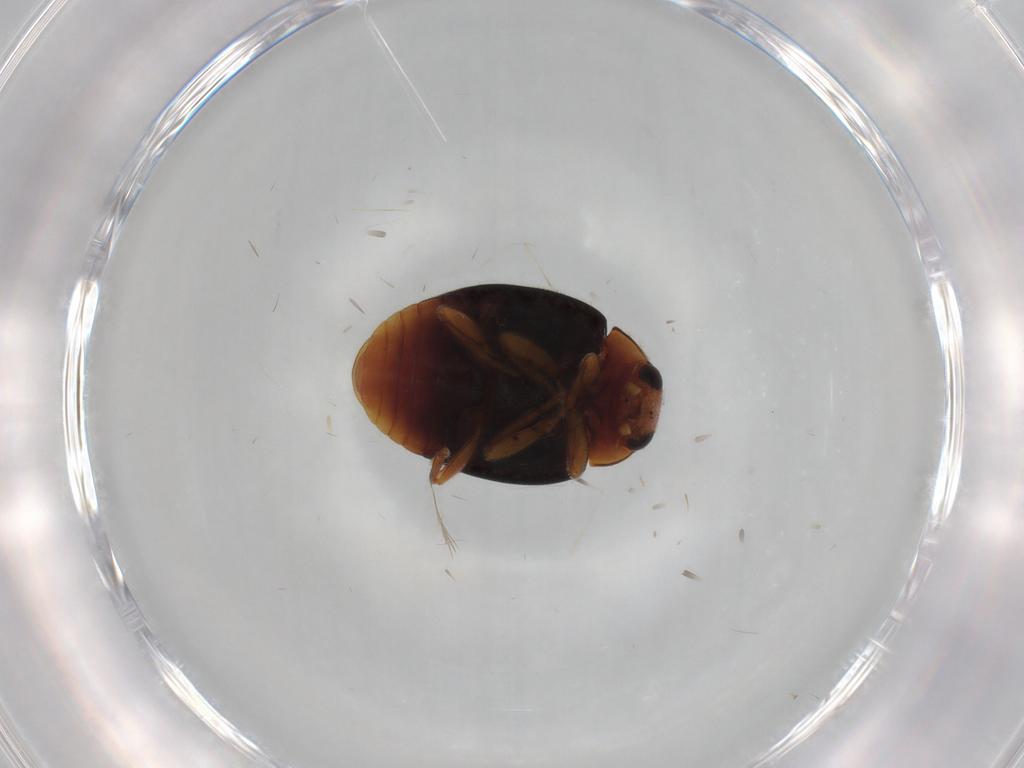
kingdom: Animalia
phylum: Arthropoda
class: Insecta
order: Coleoptera
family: Coccinellidae
